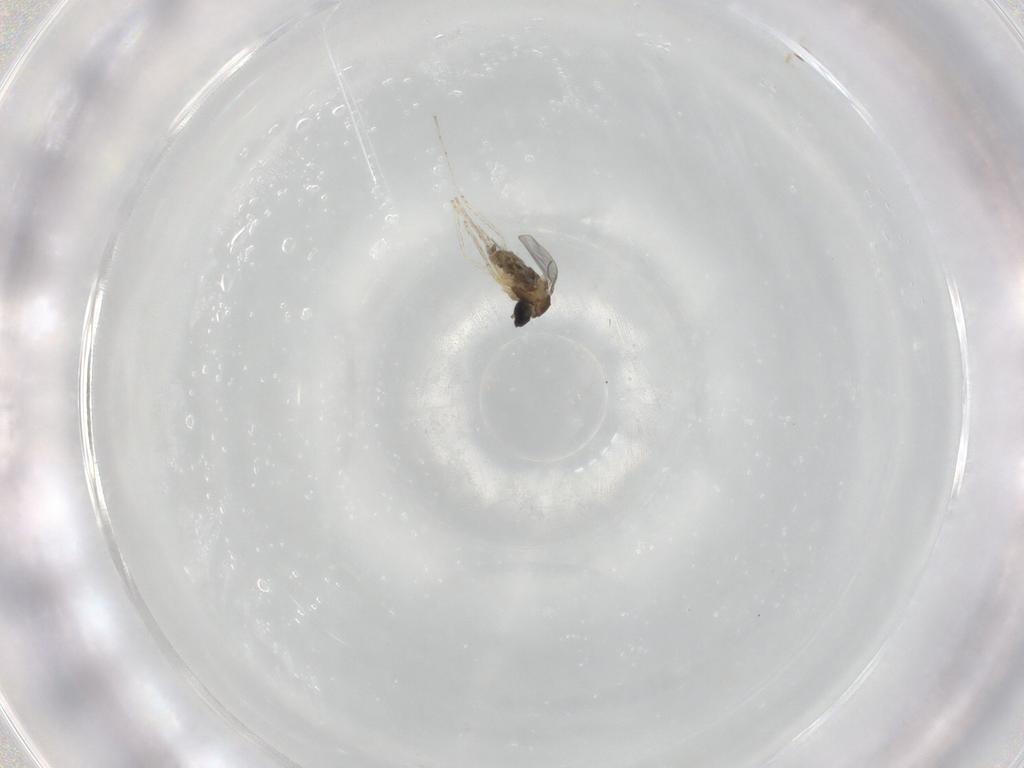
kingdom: Animalia
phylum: Arthropoda
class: Insecta
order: Diptera
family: Cecidomyiidae
